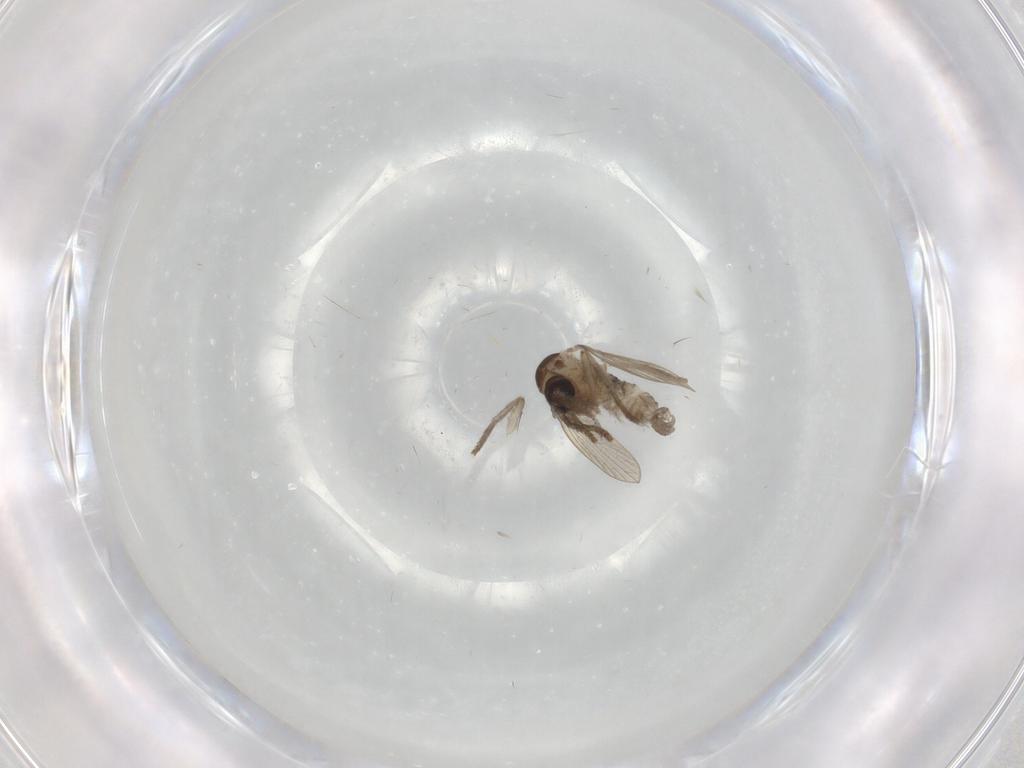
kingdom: Animalia
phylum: Arthropoda
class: Insecta
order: Diptera
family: Psychodidae
